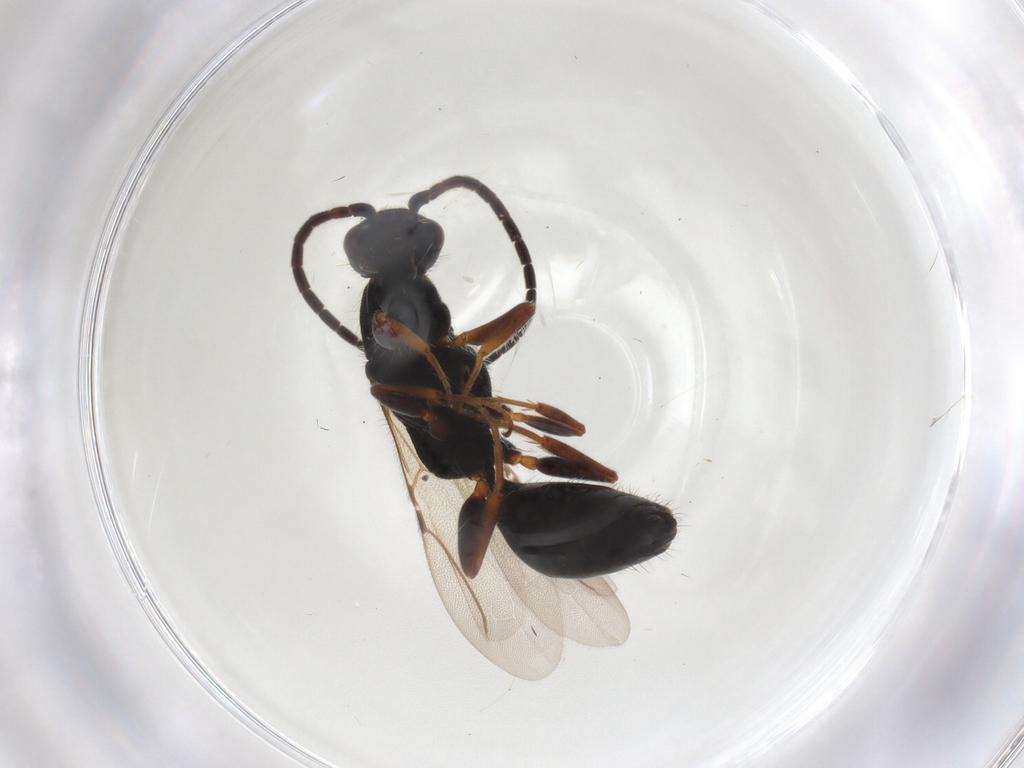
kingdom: Animalia
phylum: Arthropoda
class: Insecta
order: Hymenoptera
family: Bethylidae
